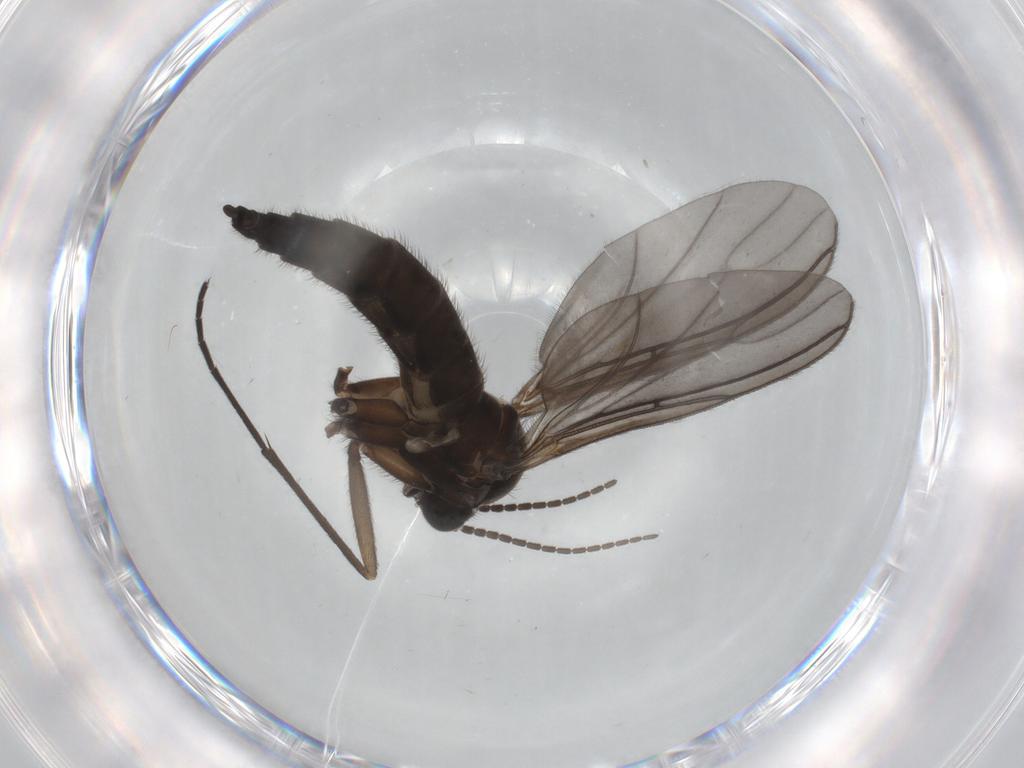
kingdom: Animalia
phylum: Arthropoda
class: Insecta
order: Diptera
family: Sciaridae
